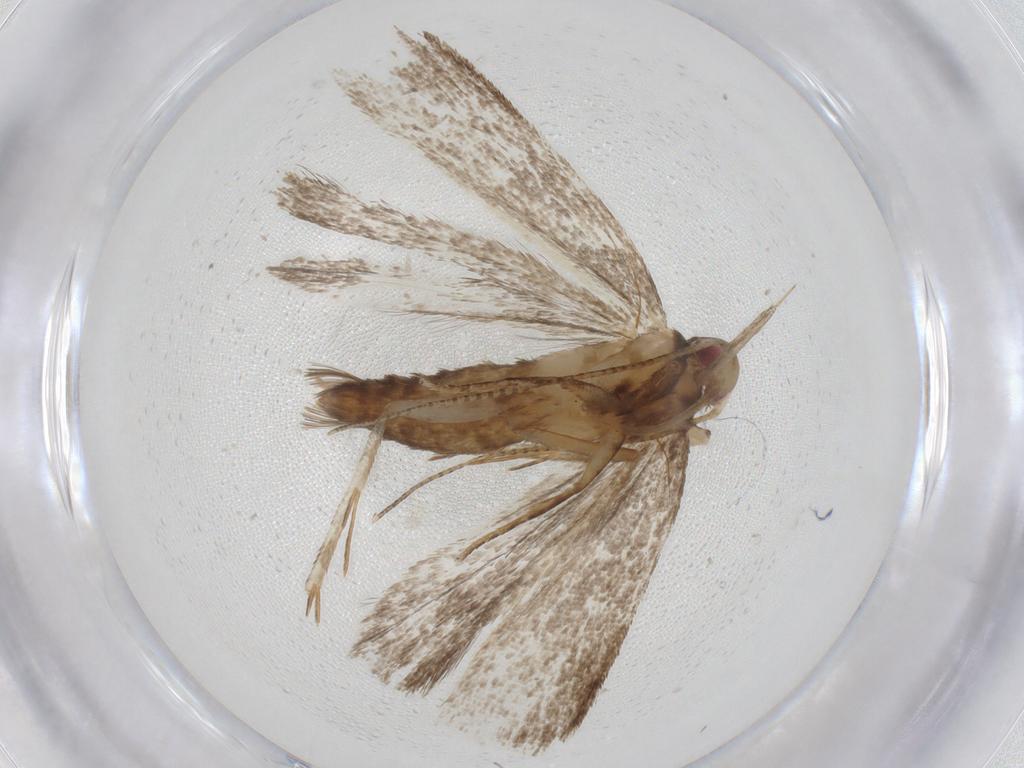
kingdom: Animalia
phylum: Arthropoda
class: Insecta
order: Lepidoptera
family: Gelechiidae
